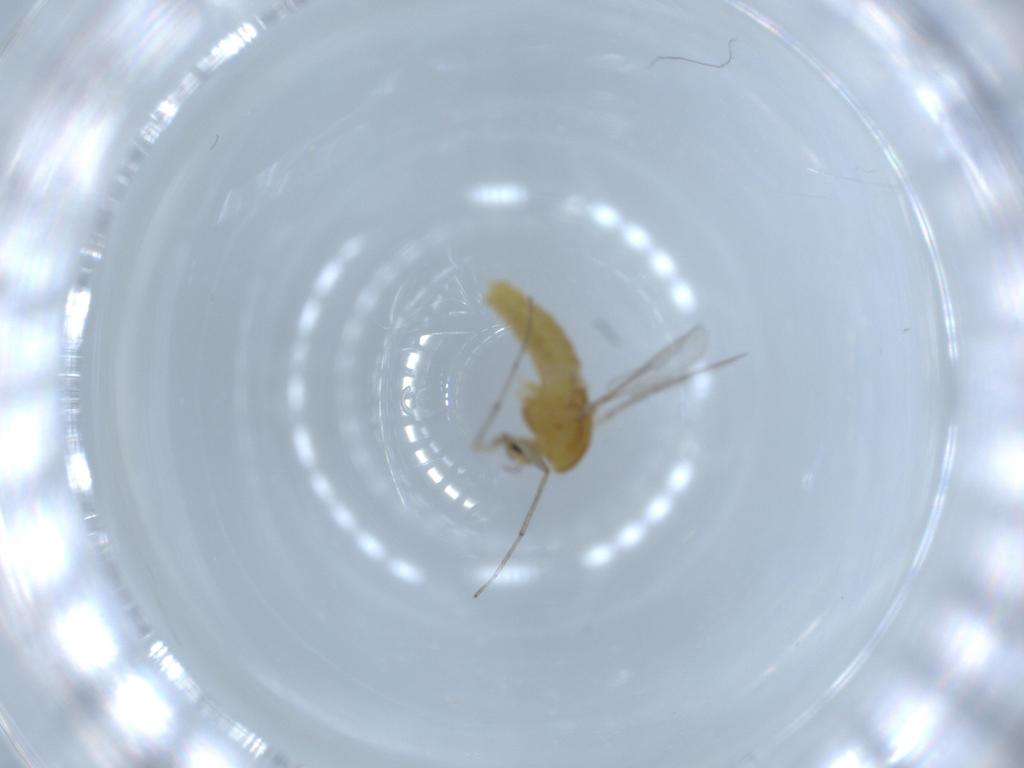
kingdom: Animalia
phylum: Arthropoda
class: Insecta
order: Diptera
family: Chironomidae
